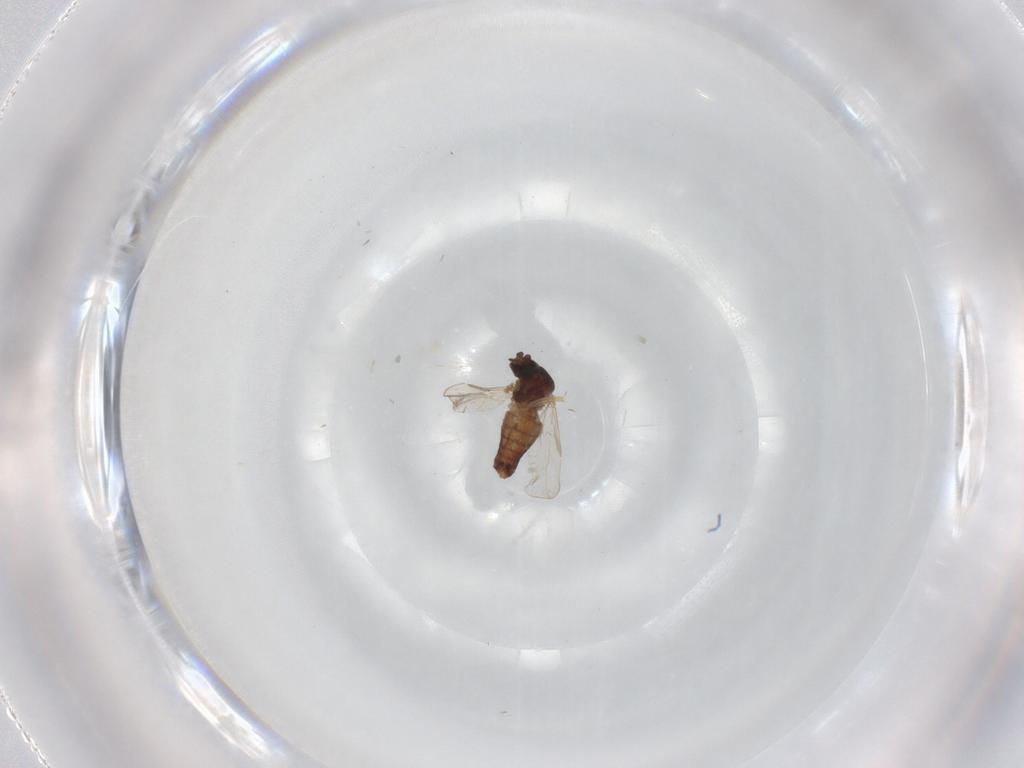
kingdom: Animalia
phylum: Arthropoda
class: Insecta
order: Diptera
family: Ceratopogonidae
